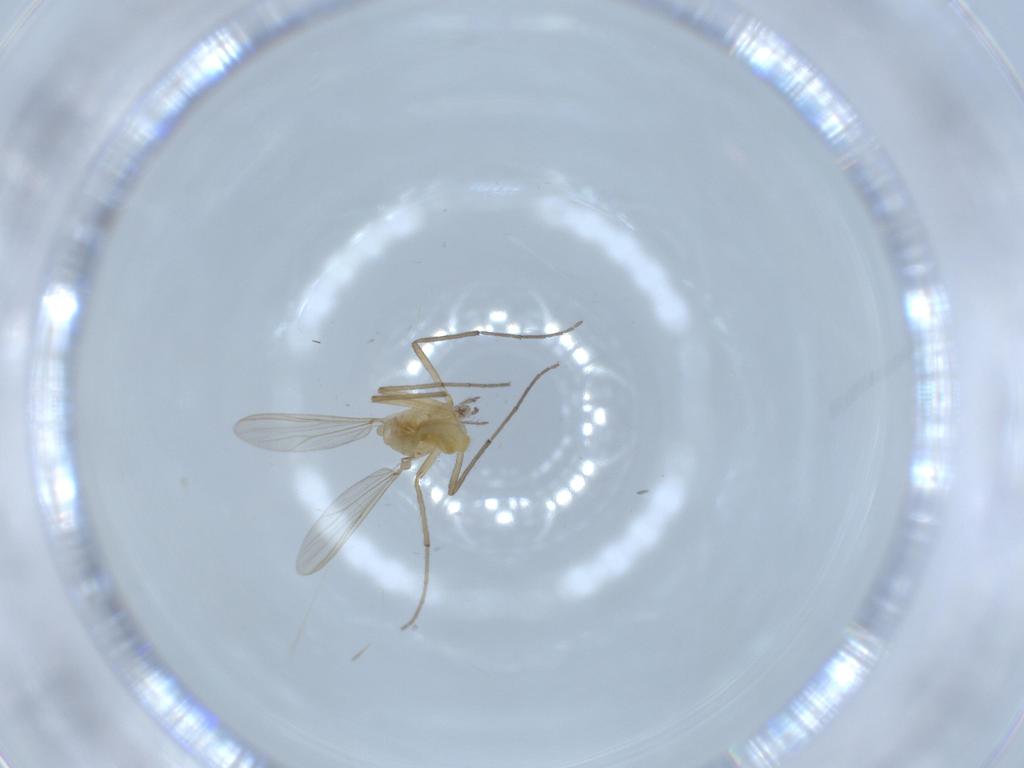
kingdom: Animalia
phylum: Arthropoda
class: Insecta
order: Diptera
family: Chironomidae
